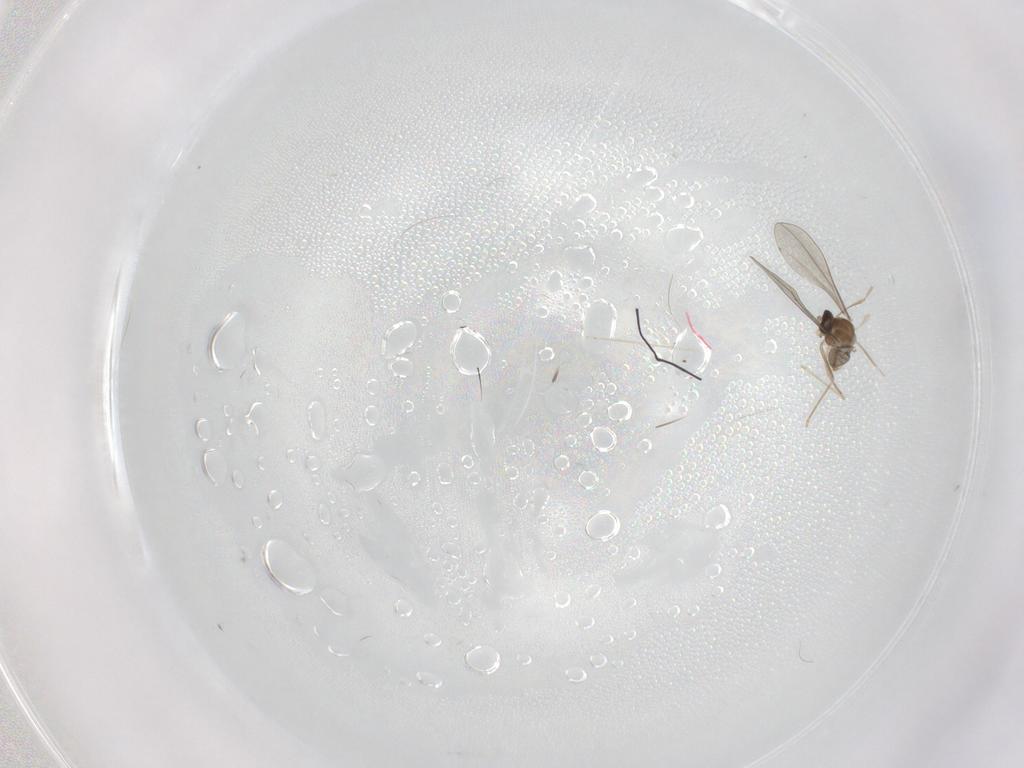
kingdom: Animalia
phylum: Arthropoda
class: Insecta
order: Diptera
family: Cecidomyiidae
